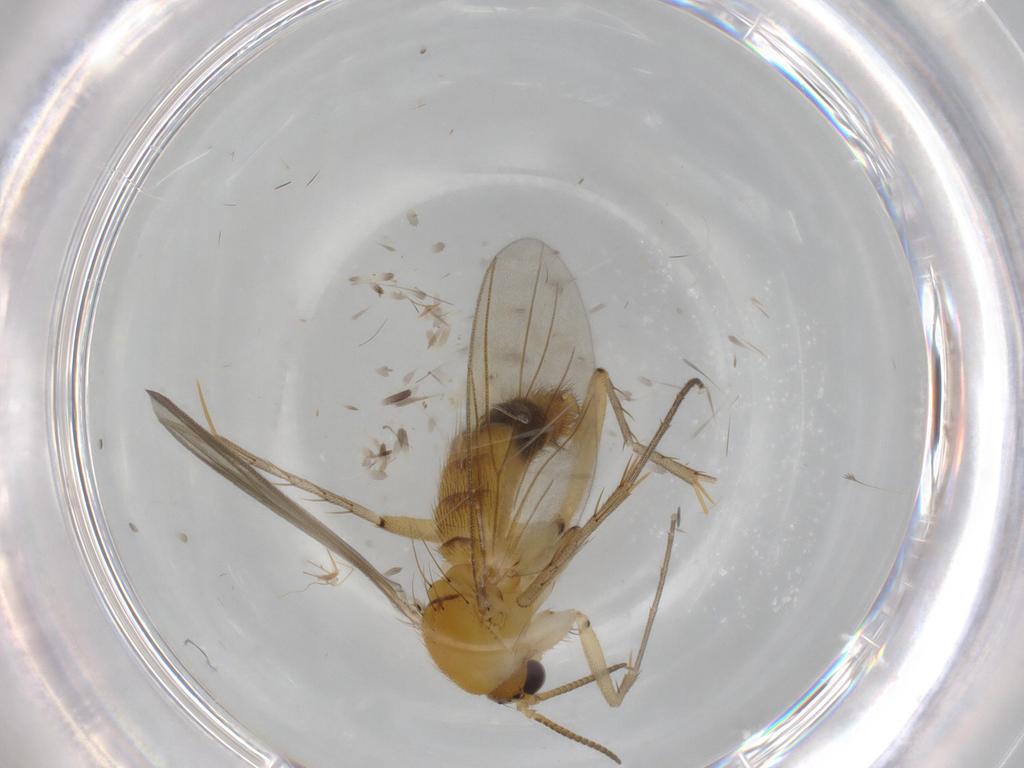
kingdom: Animalia
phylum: Arthropoda
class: Insecta
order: Diptera
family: Mycetophilidae
